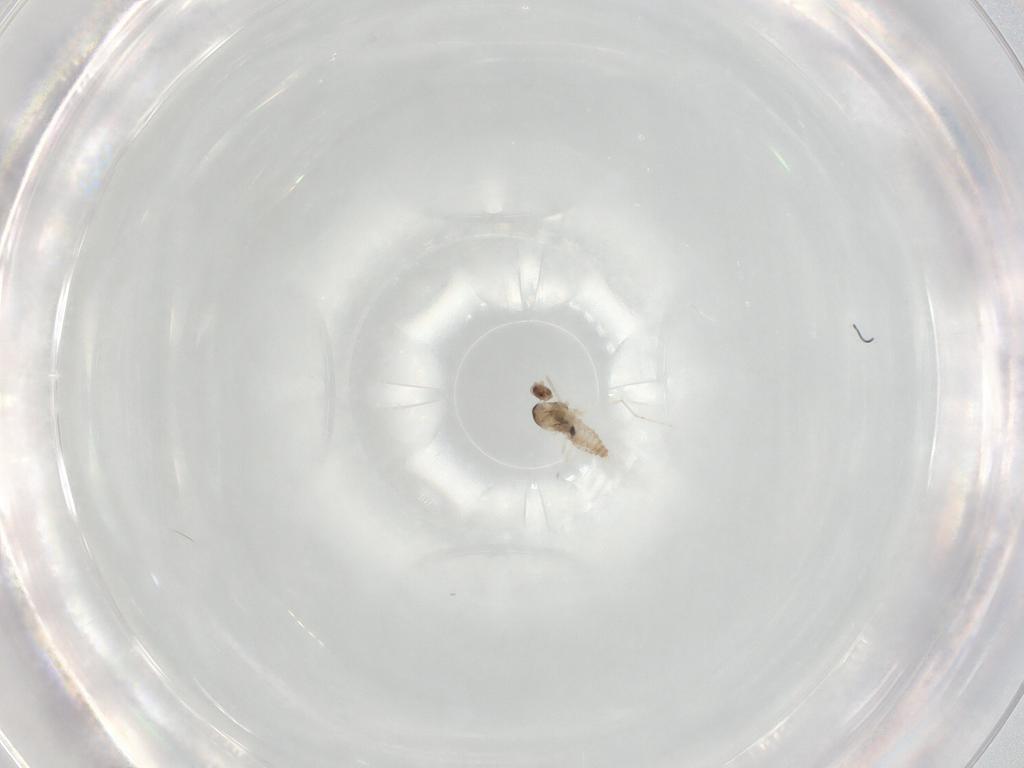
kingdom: Animalia
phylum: Arthropoda
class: Insecta
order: Diptera
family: Cecidomyiidae
